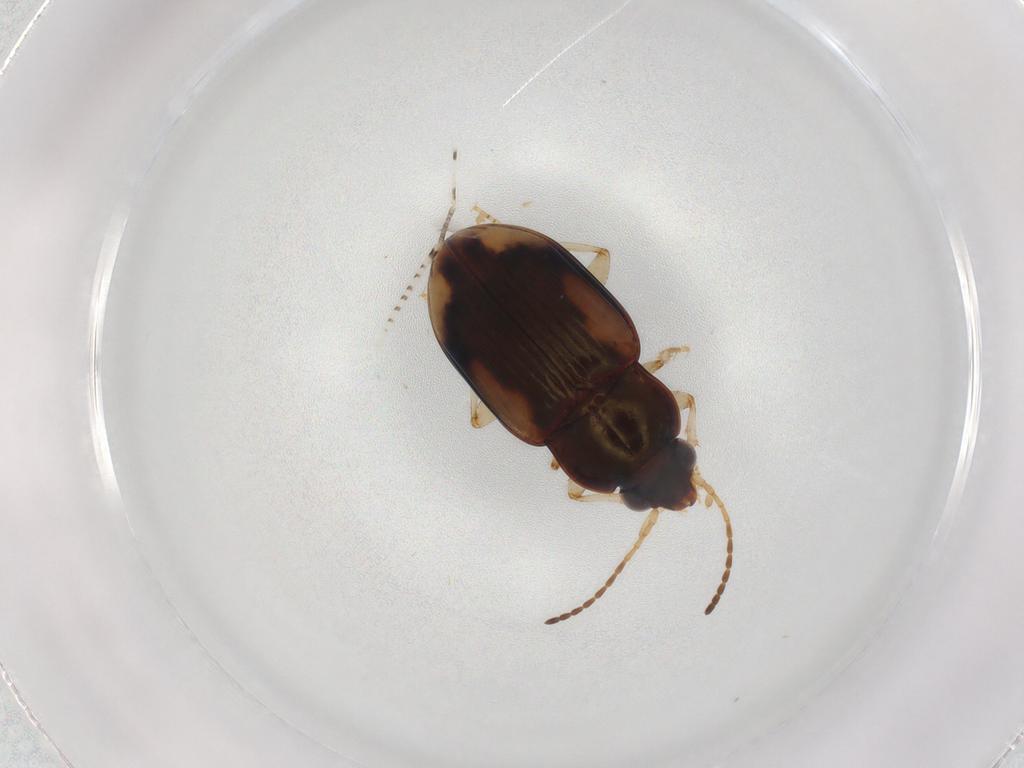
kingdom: Animalia
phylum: Arthropoda
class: Insecta
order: Coleoptera
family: Carabidae
